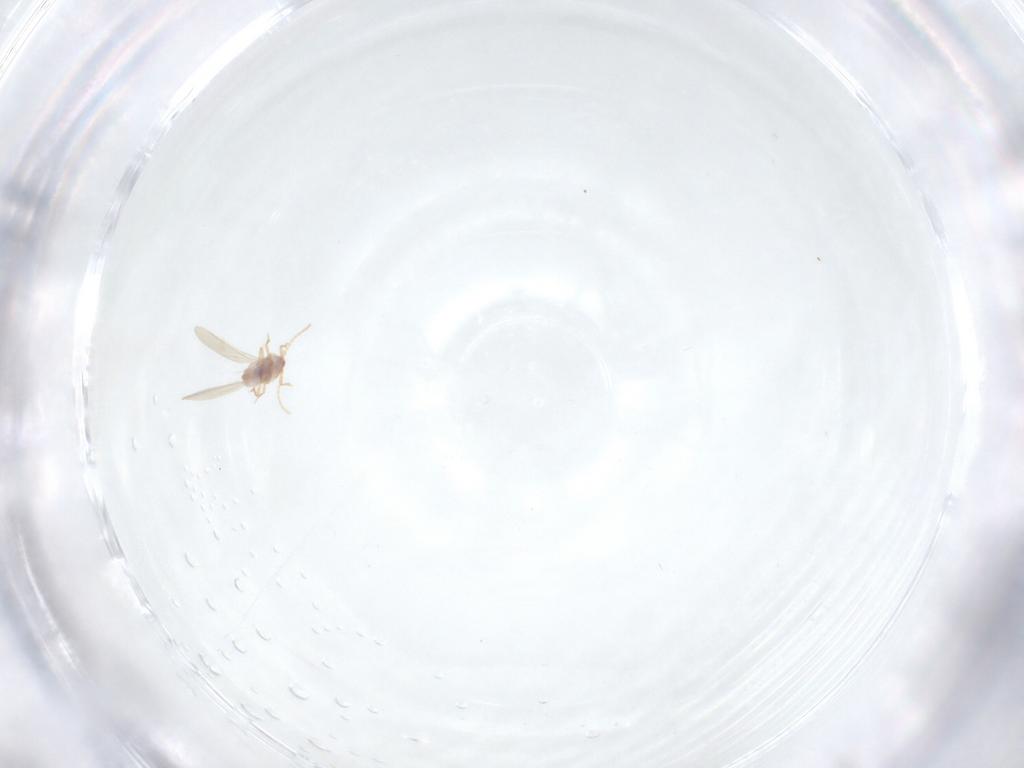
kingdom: Animalia
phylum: Arthropoda
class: Insecta
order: Hemiptera
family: Pseudococcidae
